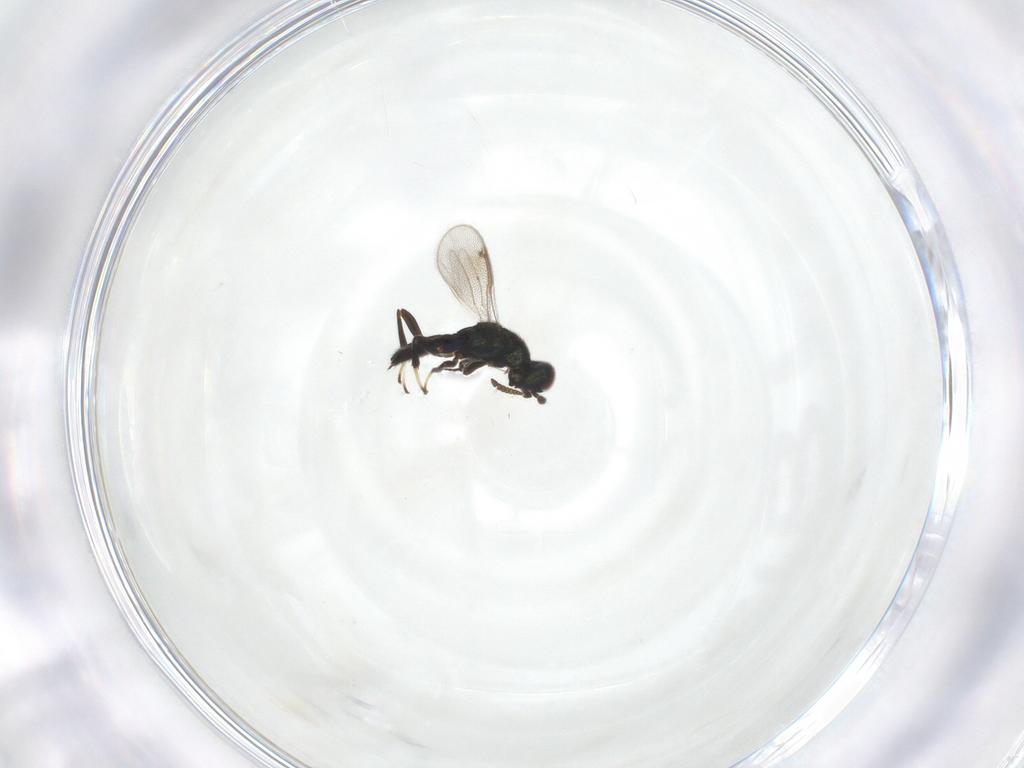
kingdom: Animalia
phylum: Arthropoda
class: Insecta
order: Hymenoptera
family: Cleonyminae
